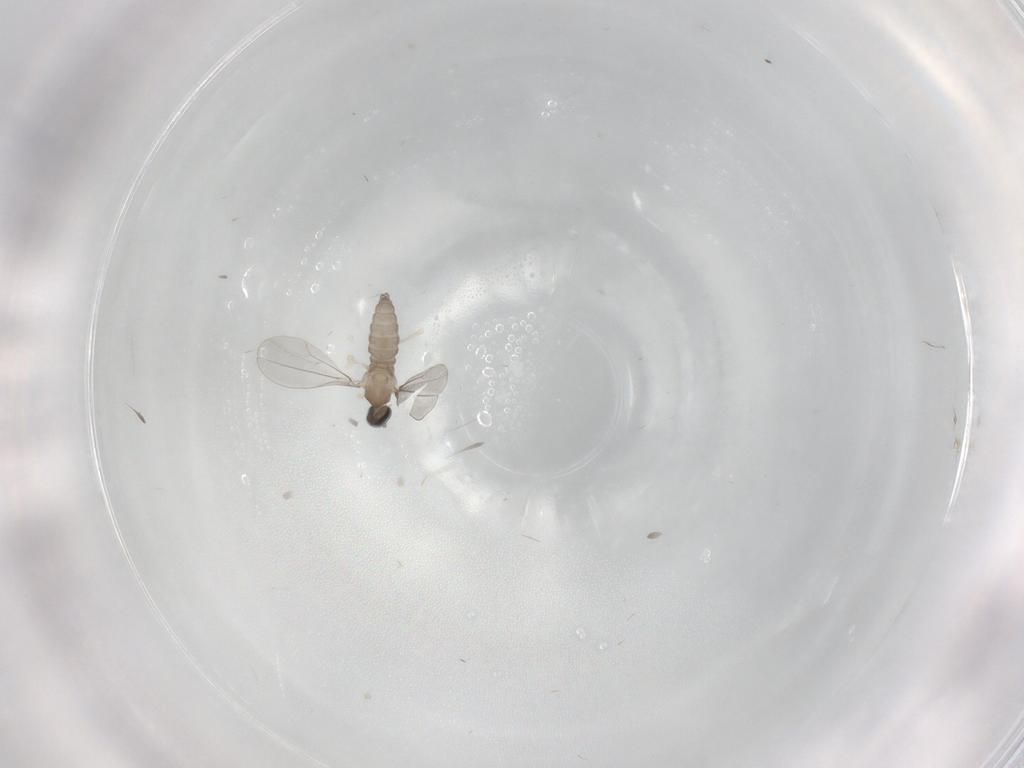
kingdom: Animalia
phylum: Arthropoda
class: Insecta
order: Diptera
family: Cecidomyiidae
